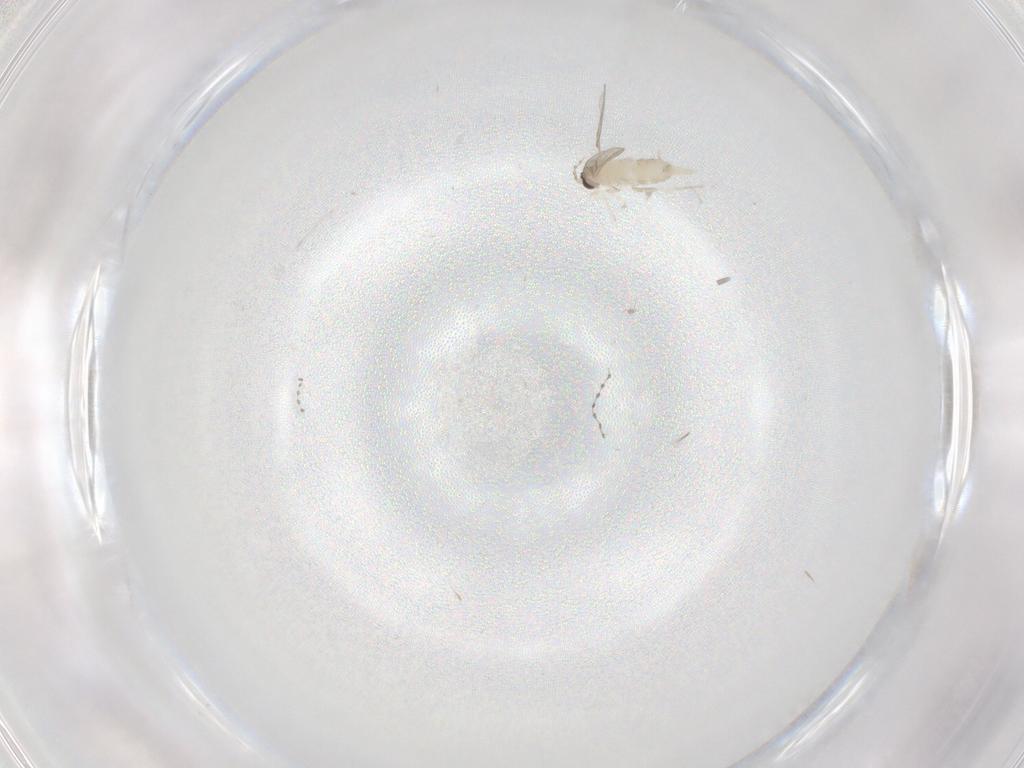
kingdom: Animalia
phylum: Arthropoda
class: Insecta
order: Diptera
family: Cecidomyiidae
